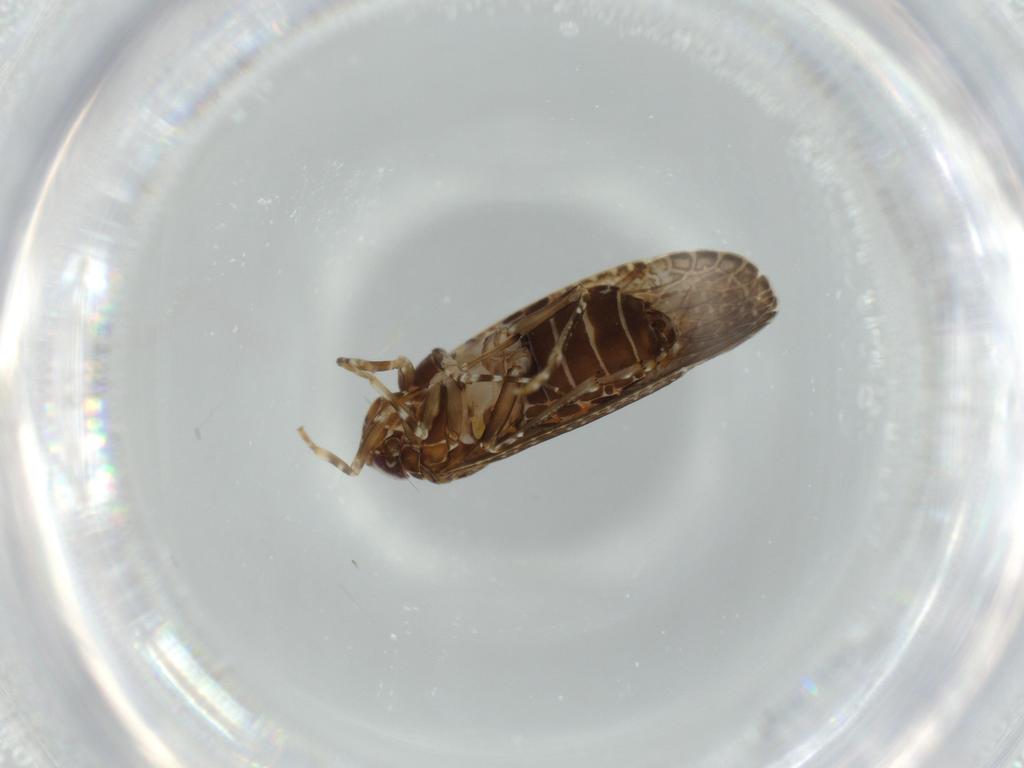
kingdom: Animalia
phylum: Arthropoda
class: Insecta
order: Hemiptera
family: Cicadellidae
